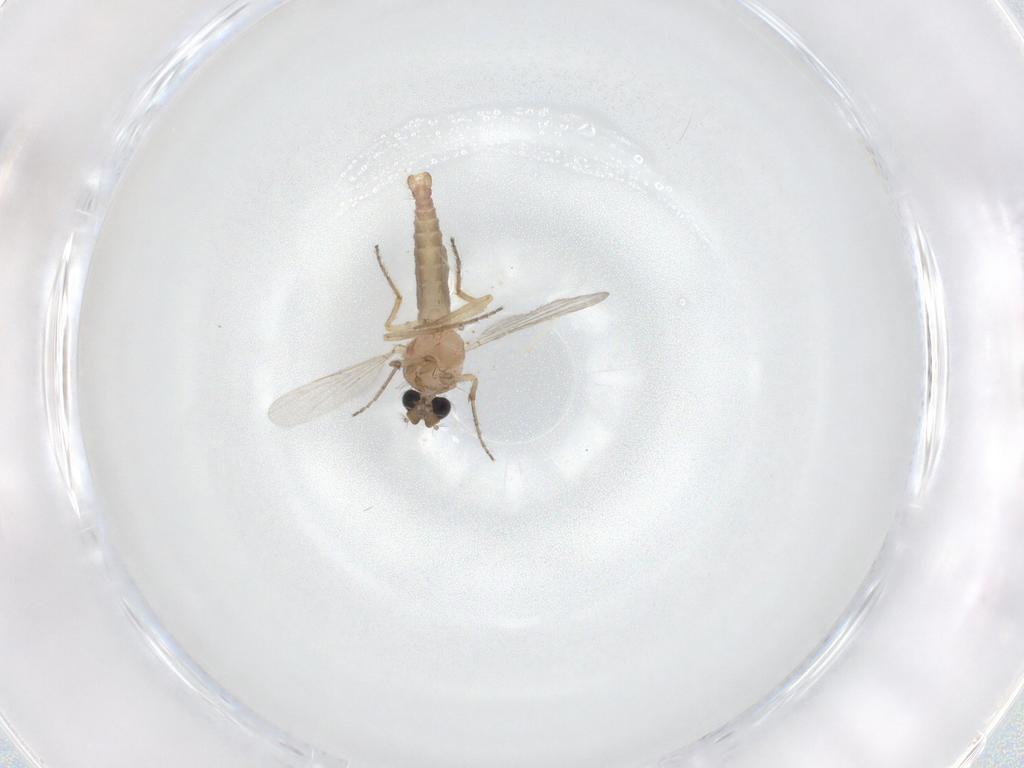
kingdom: Animalia
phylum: Arthropoda
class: Insecta
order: Diptera
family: Ceratopogonidae
